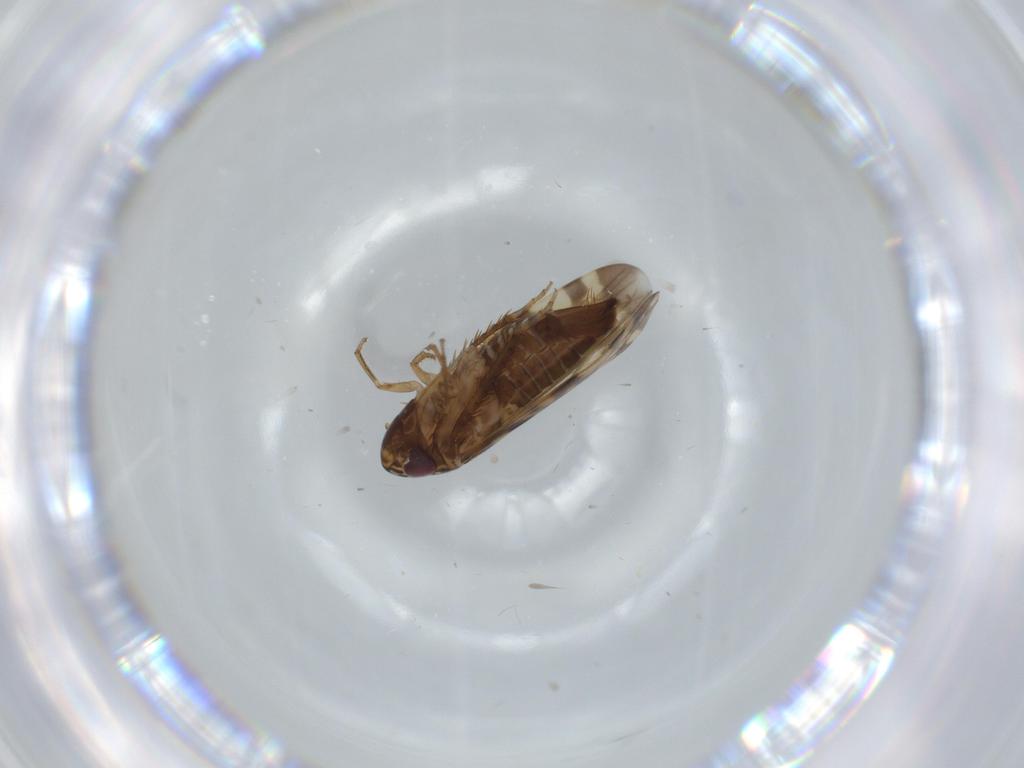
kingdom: Animalia
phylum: Arthropoda
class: Insecta
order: Hemiptera
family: Cicadellidae
